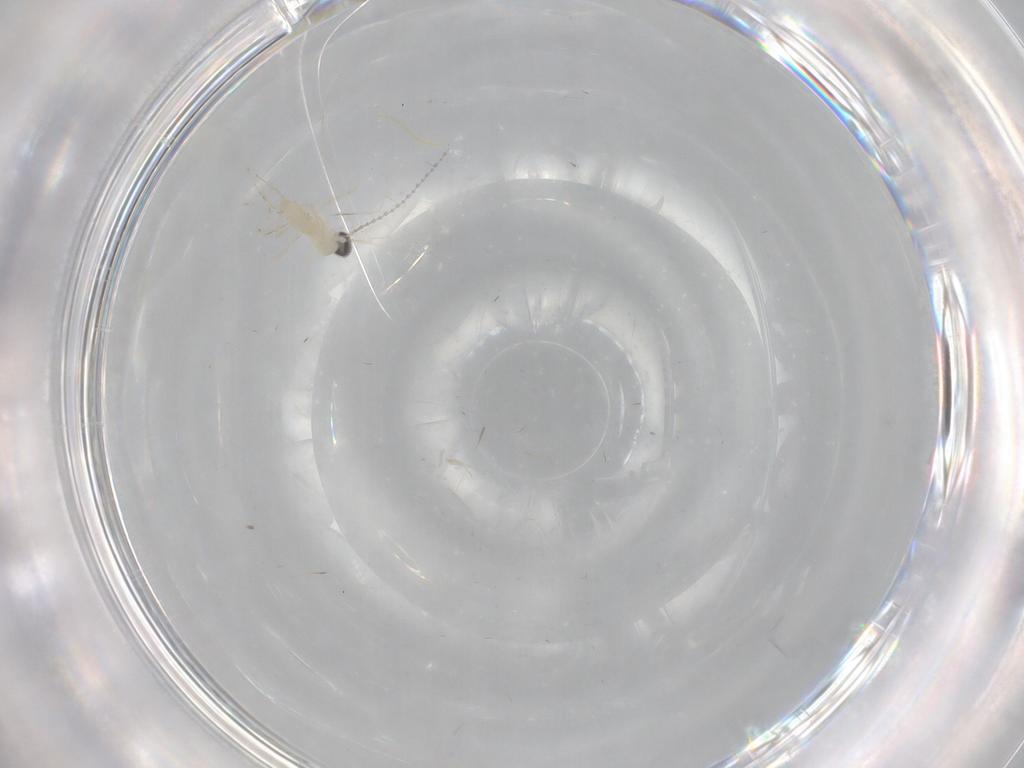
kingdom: Animalia
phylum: Arthropoda
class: Insecta
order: Diptera
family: Cecidomyiidae
